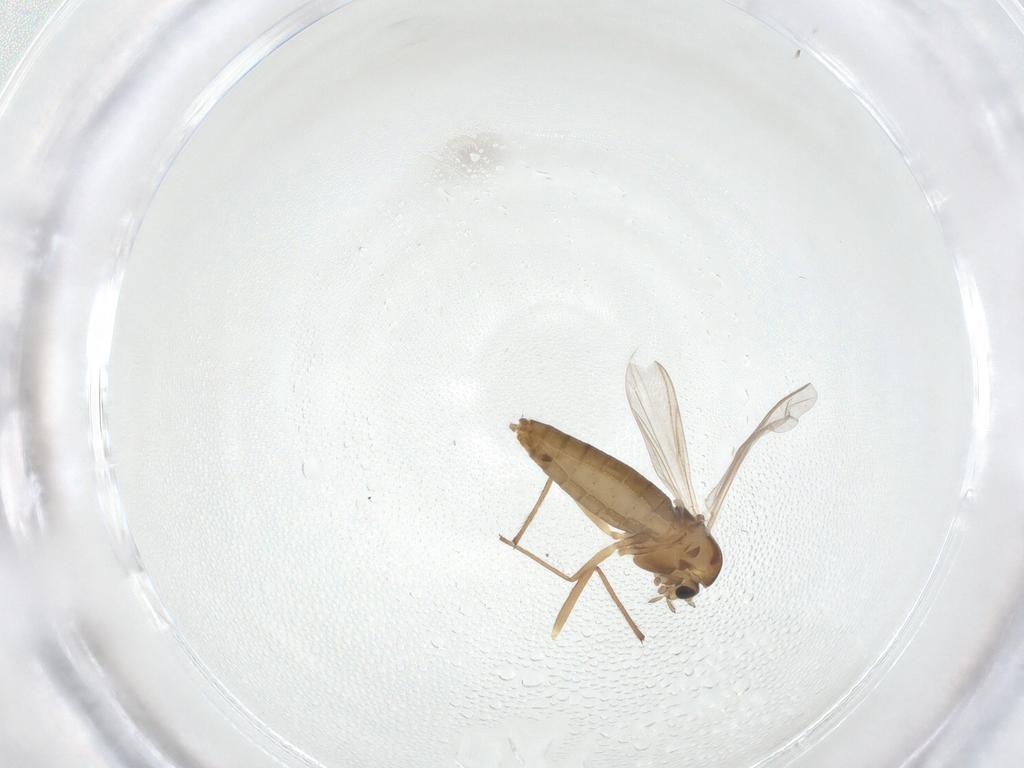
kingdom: Animalia
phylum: Arthropoda
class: Insecta
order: Diptera
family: Chironomidae
